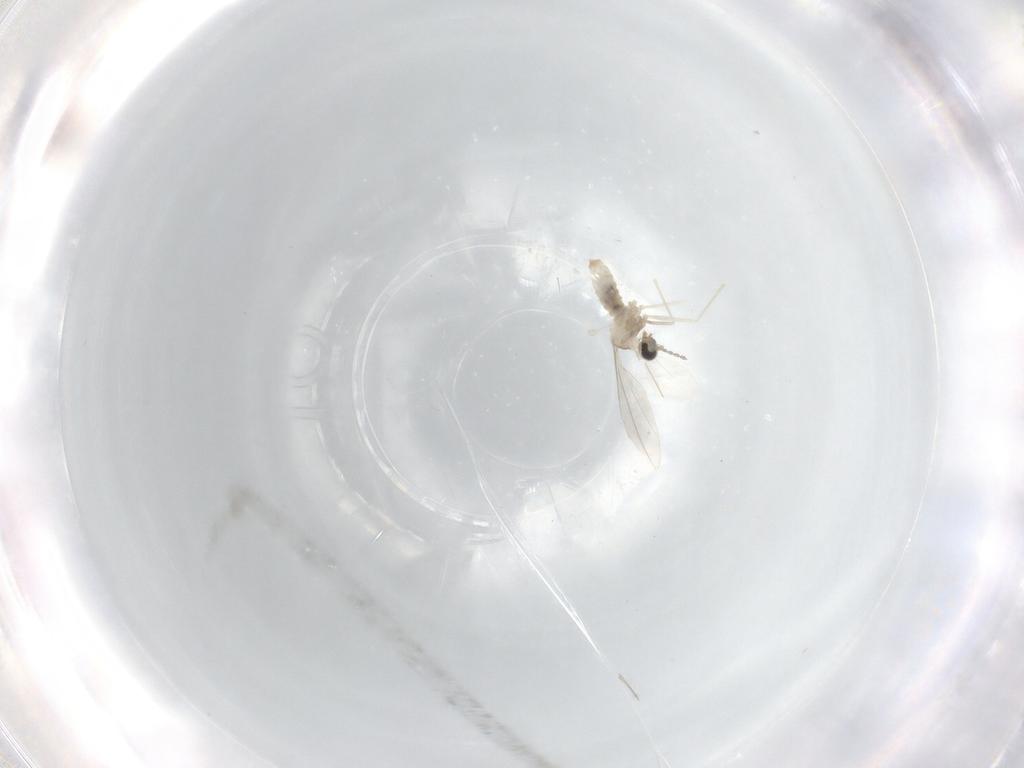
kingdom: Animalia
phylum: Arthropoda
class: Insecta
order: Diptera
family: Cecidomyiidae
